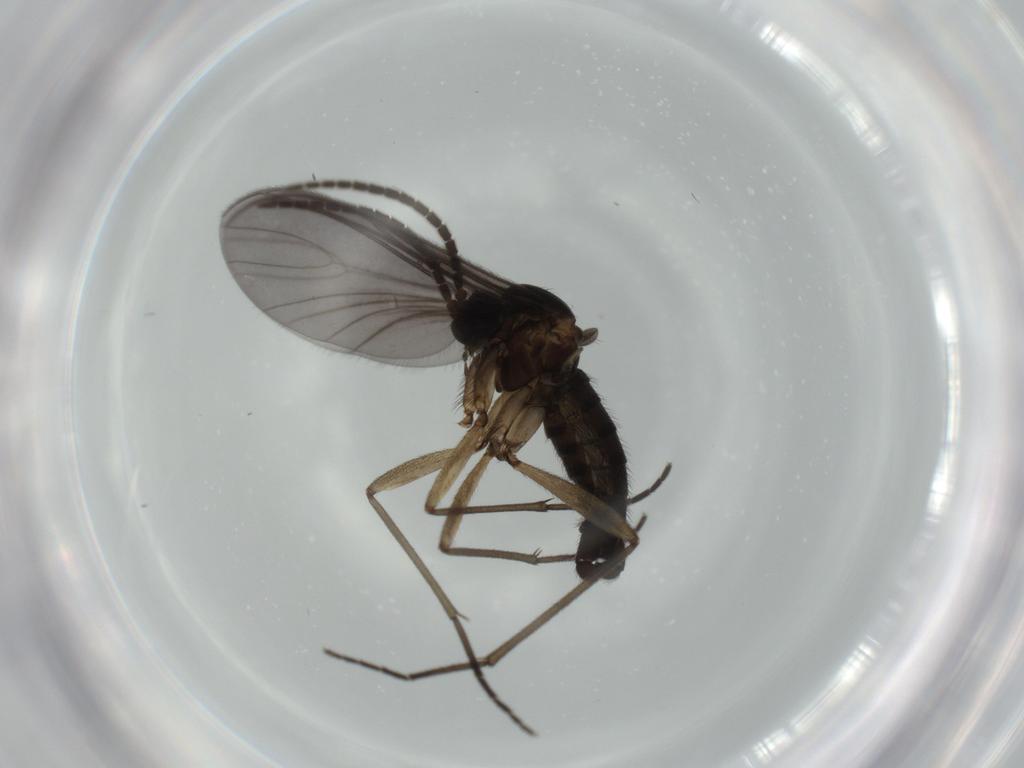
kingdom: Animalia
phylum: Arthropoda
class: Insecta
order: Diptera
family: Sciaridae
